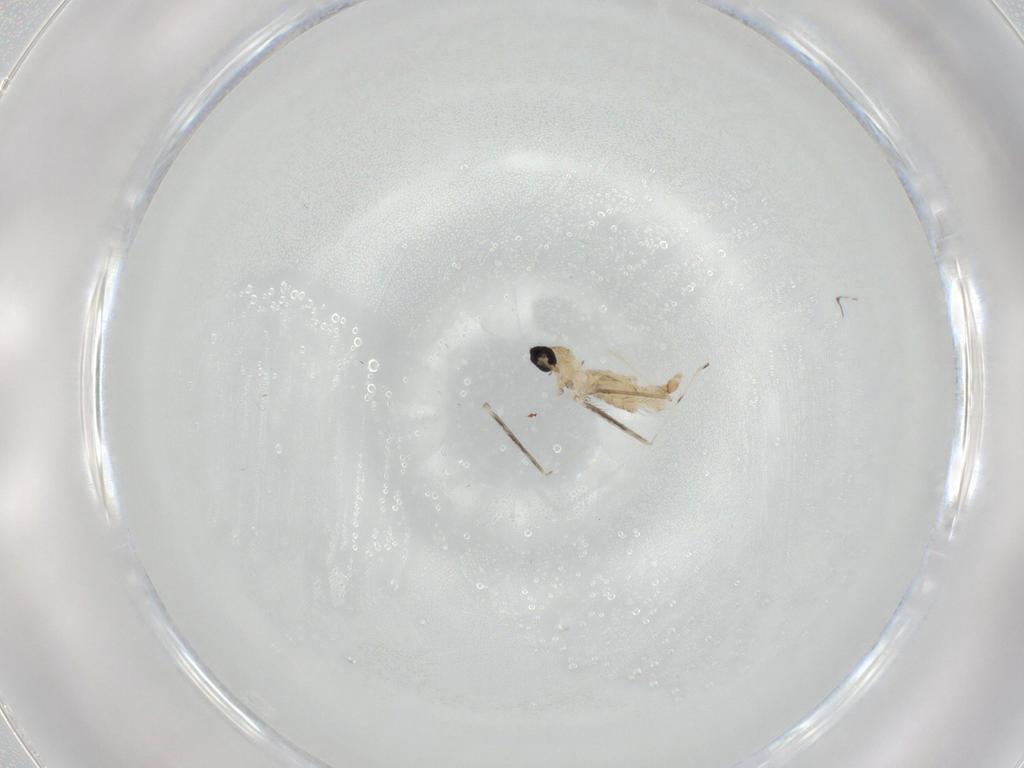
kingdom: Animalia
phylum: Arthropoda
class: Insecta
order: Diptera
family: Cecidomyiidae
